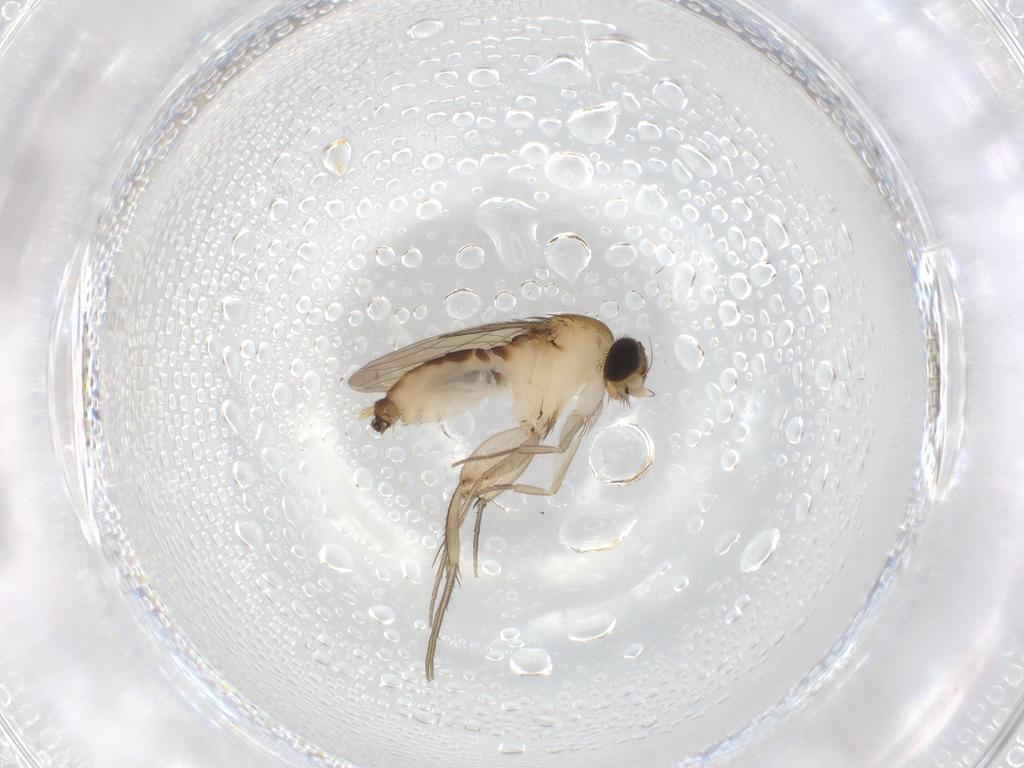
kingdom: Animalia
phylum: Arthropoda
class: Insecta
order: Diptera
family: Phoridae
